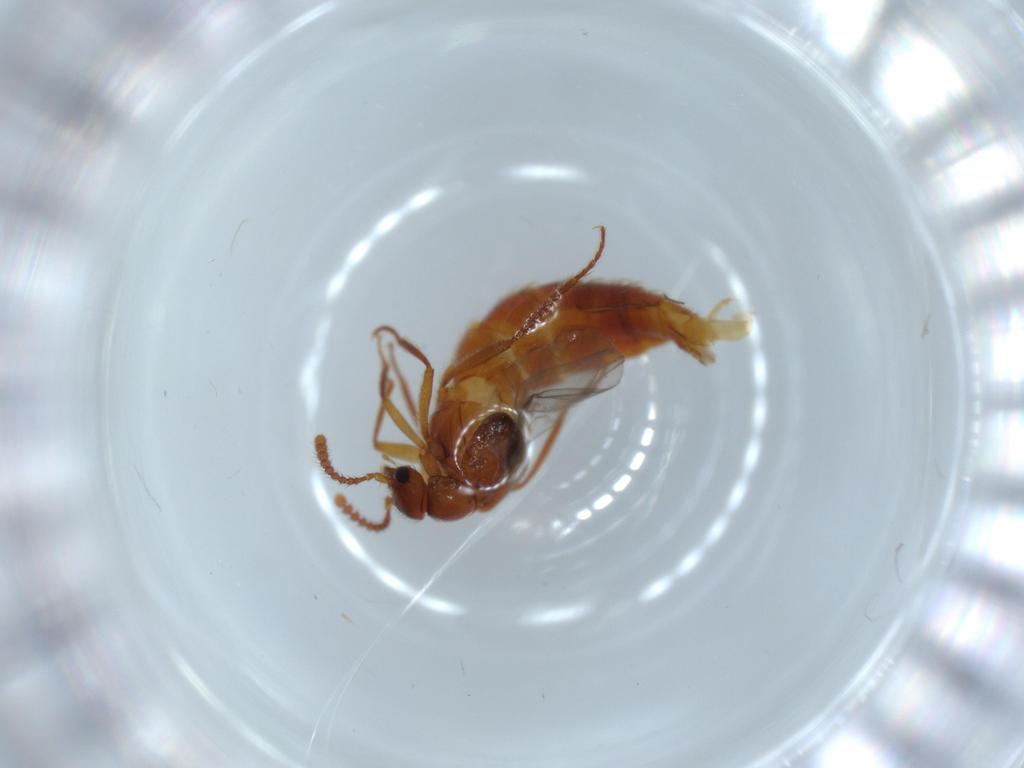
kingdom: Animalia
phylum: Arthropoda
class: Insecta
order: Coleoptera
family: Staphylinidae
